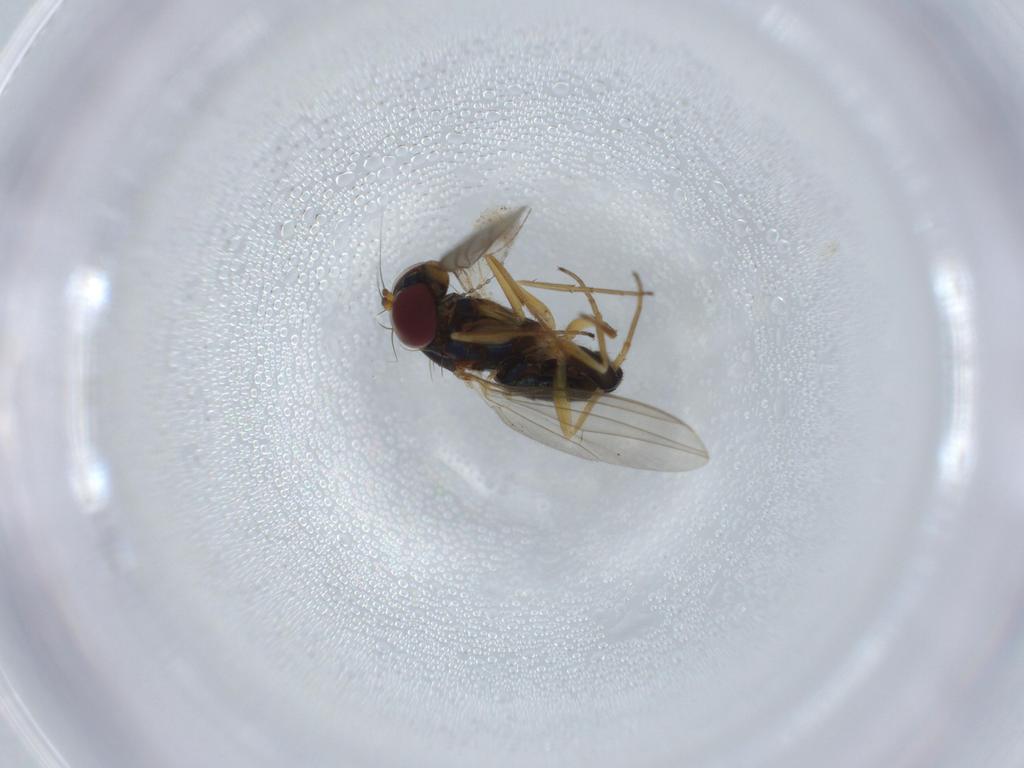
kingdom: Animalia
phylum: Arthropoda
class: Insecta
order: Diptera
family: Dolichopodidae
